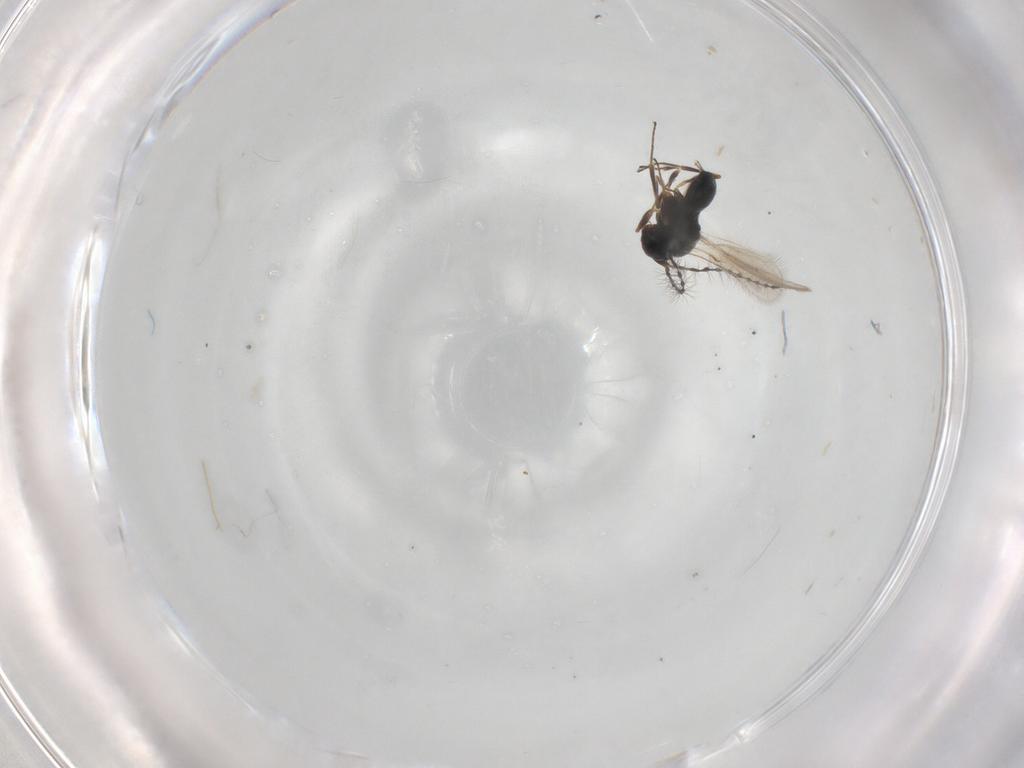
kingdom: Animalia
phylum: Arthropoda
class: Insecta
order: Hymenoptera
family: Scelionidae
